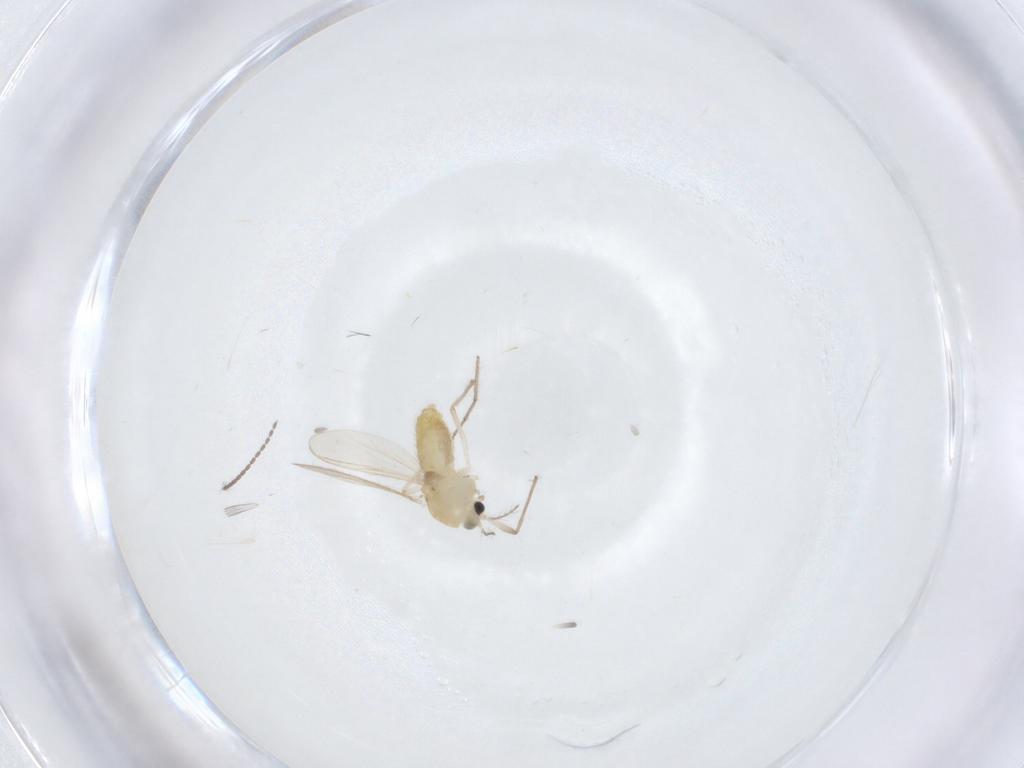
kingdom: Animalia
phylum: Arthropoda
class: Insecta
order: Diptera
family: Chironomidae
